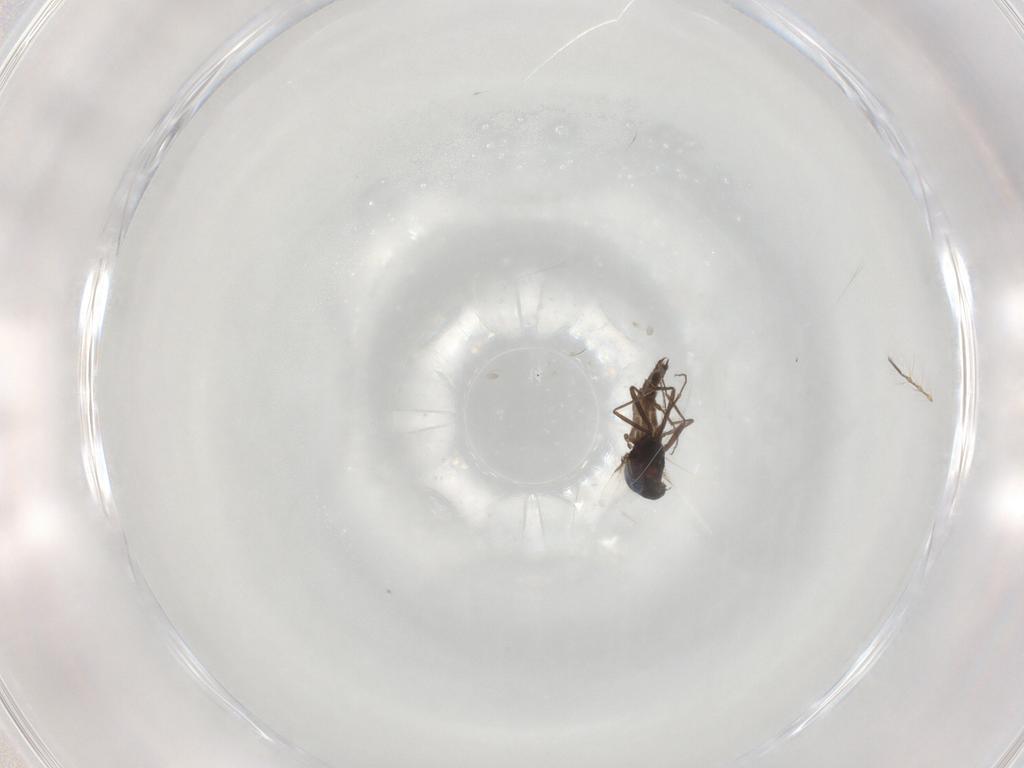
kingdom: Animalia
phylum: Arthropoda
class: Insecta
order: Diptera
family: Ceratopogonidae
